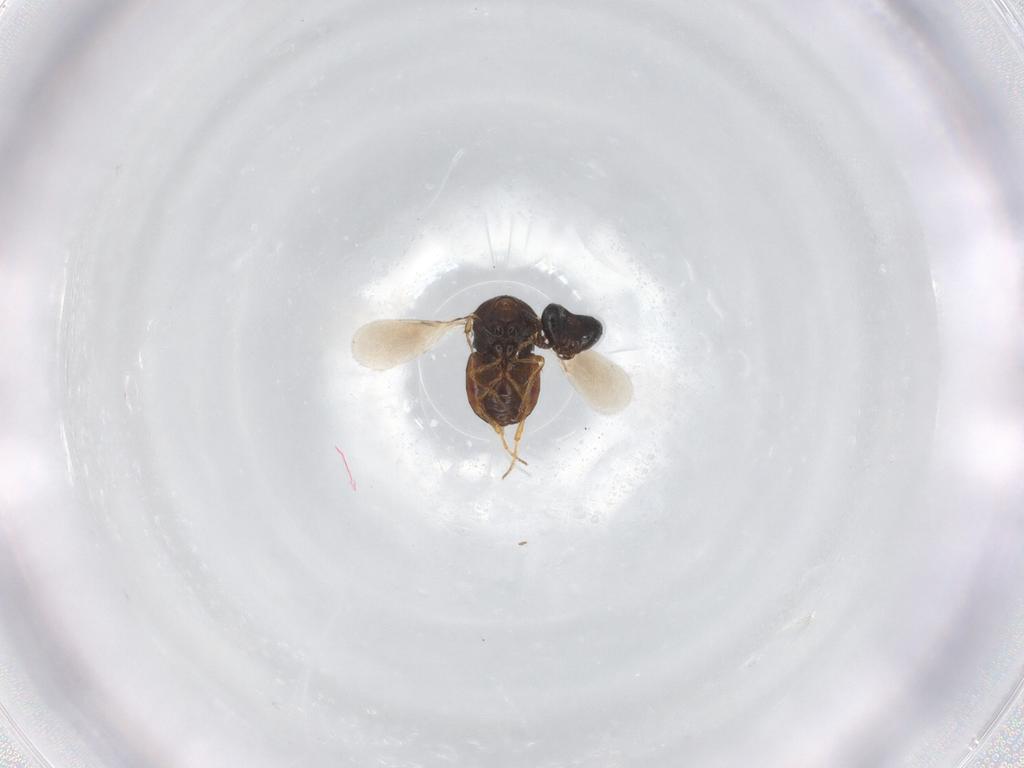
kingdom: Animalia
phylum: Arthropoda
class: Insecta
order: Hymenoptera
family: Scelionidae
